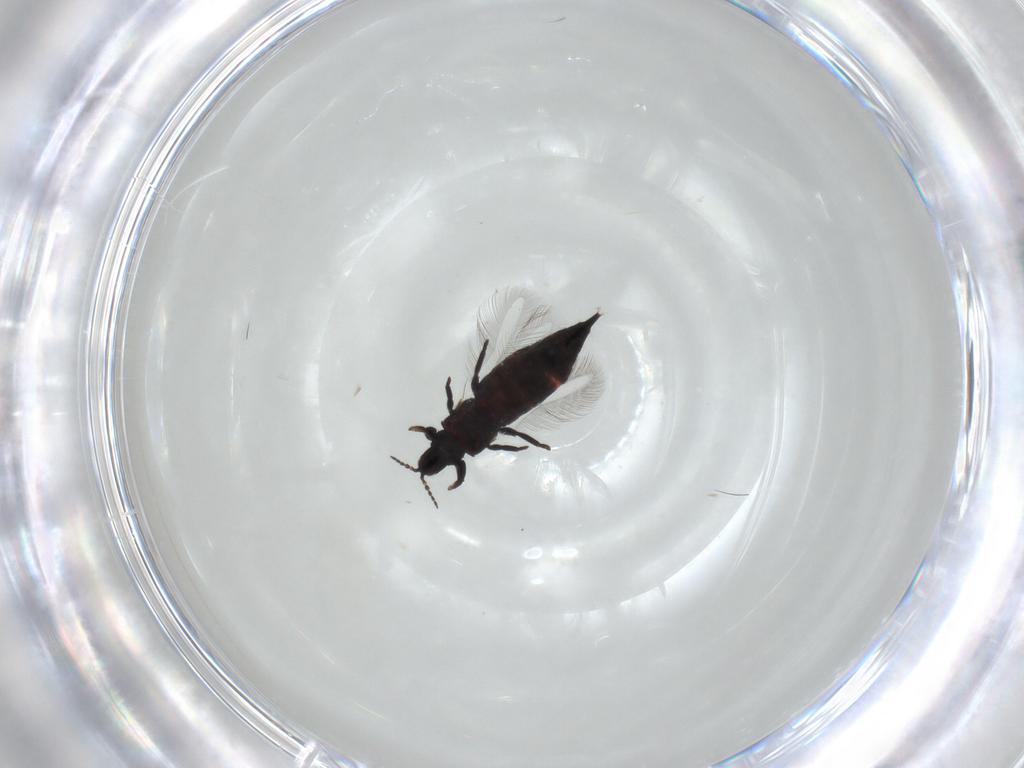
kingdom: Animalia
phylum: Arthropoda
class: Insecta
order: Thysanoptera
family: Phlaeothripidae
